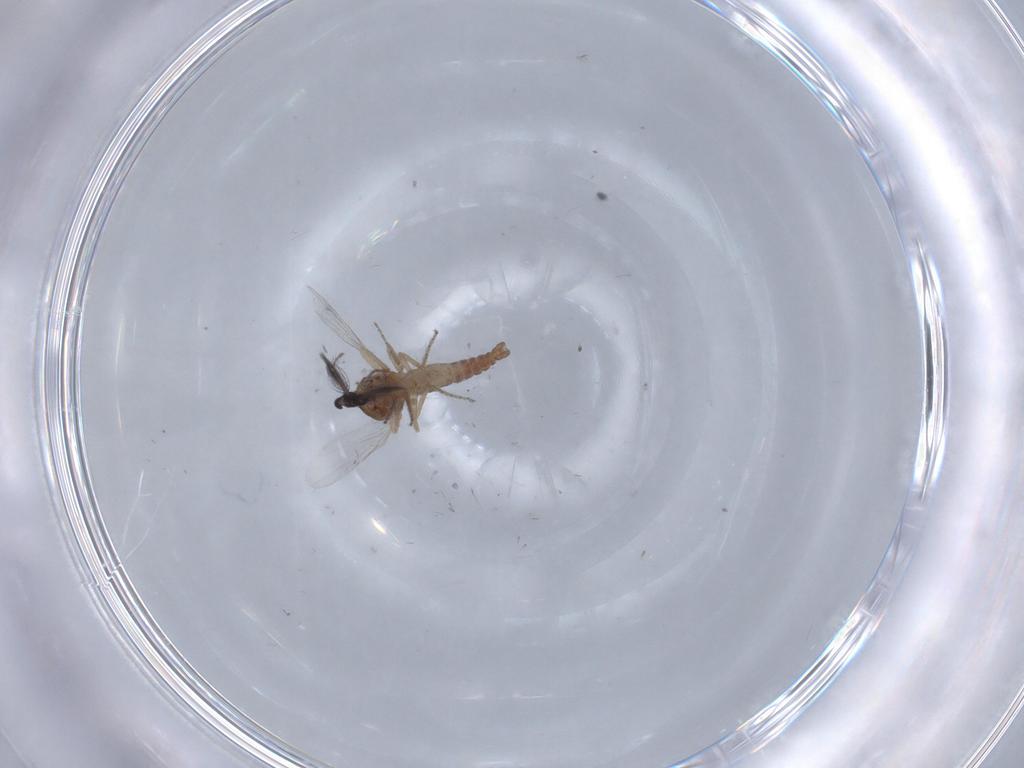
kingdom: Animalia
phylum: Arthropoda
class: Insecta
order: Diptera
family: Ceratopogonidae
